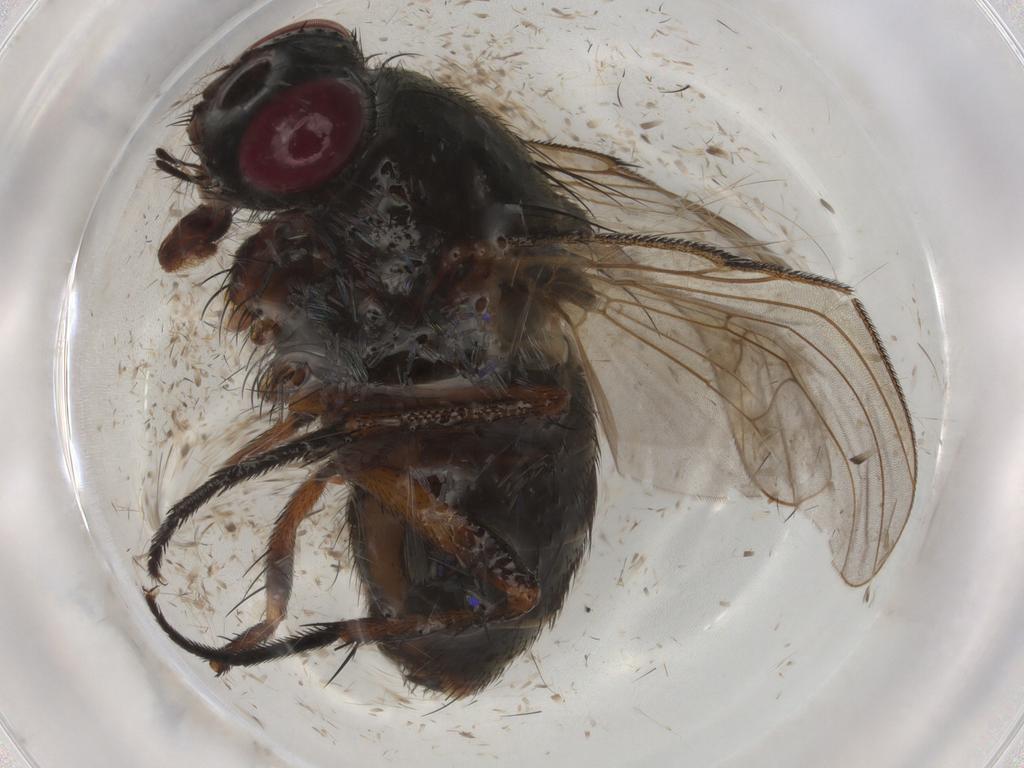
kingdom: Animalia
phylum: Arthropoda
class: Insecta
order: Diptera
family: Muscidae
